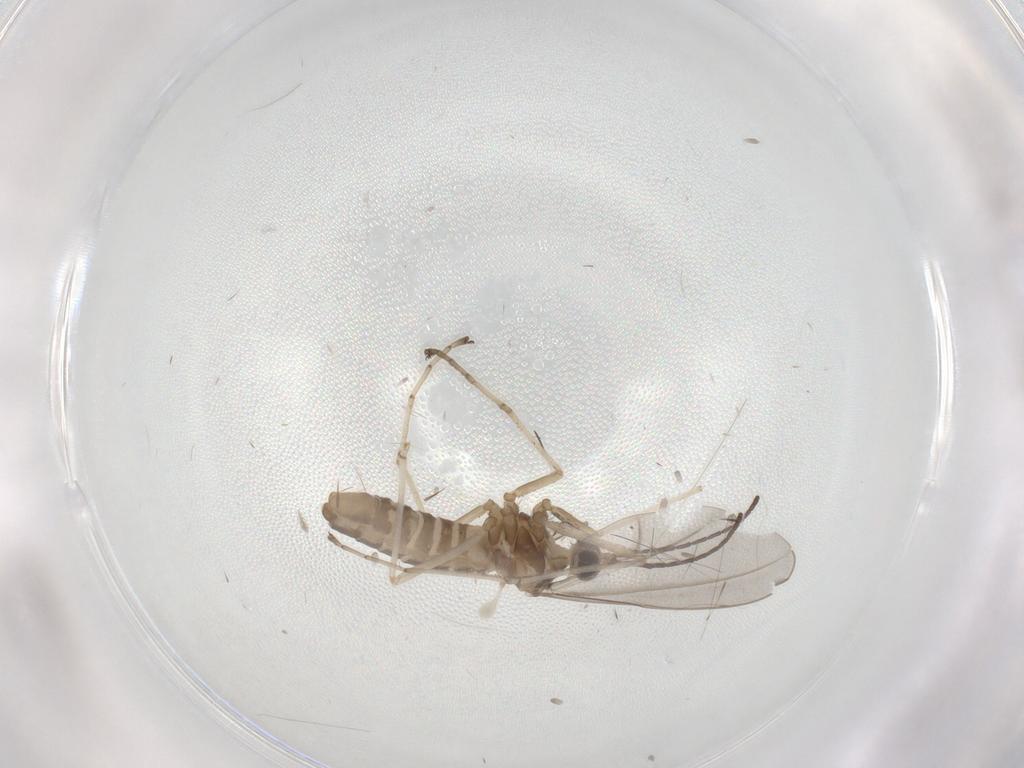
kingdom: Animalia
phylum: Arthropoda
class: Insecta
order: Diptera
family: Cecidomyiidae
